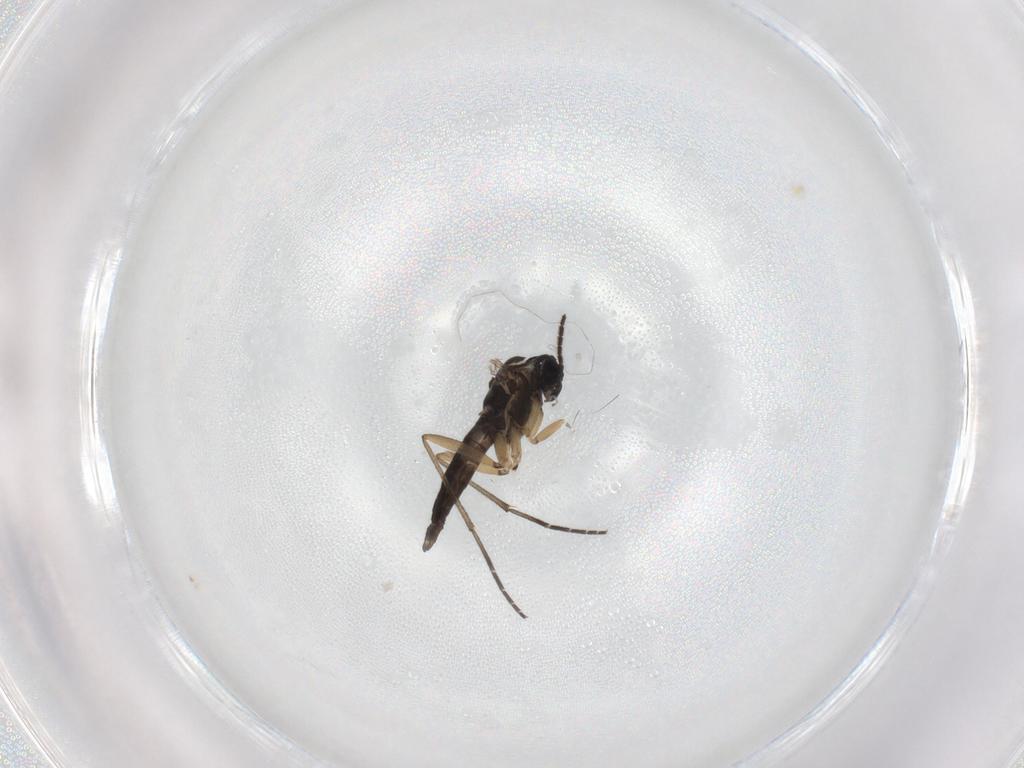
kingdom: Animalia
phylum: Arthropoda
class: Insecta
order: Diptera
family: Sciaridae
